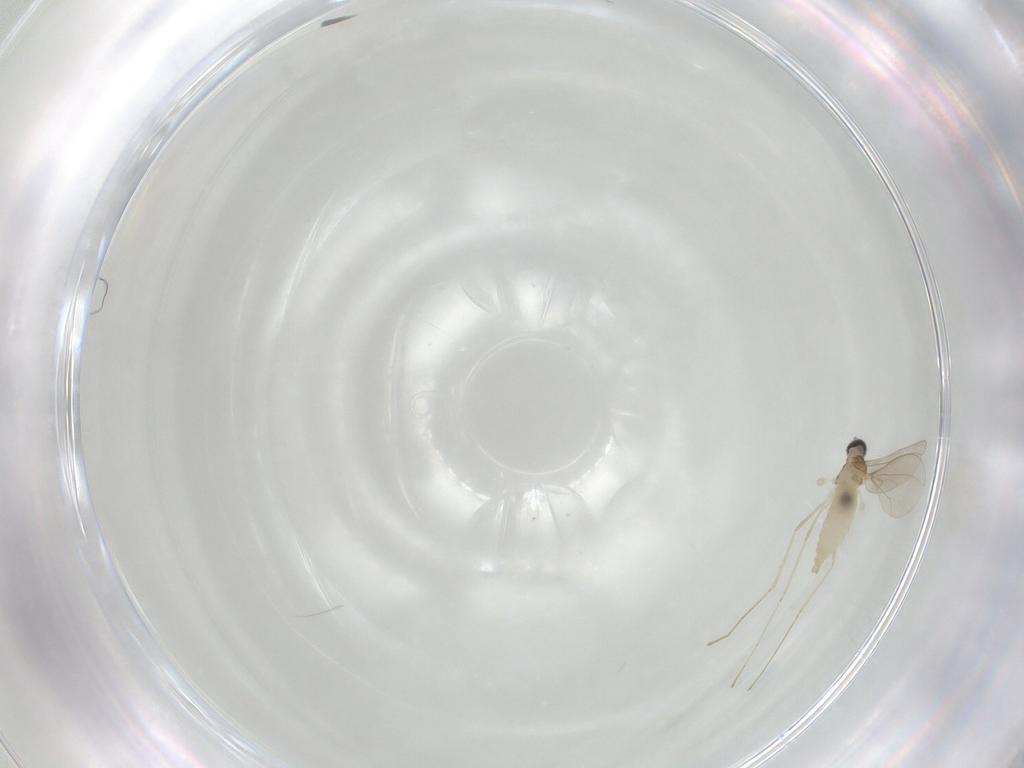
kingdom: Animalia
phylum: Arthropoda
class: Insecta
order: Diptera
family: Cecidomyiidae
